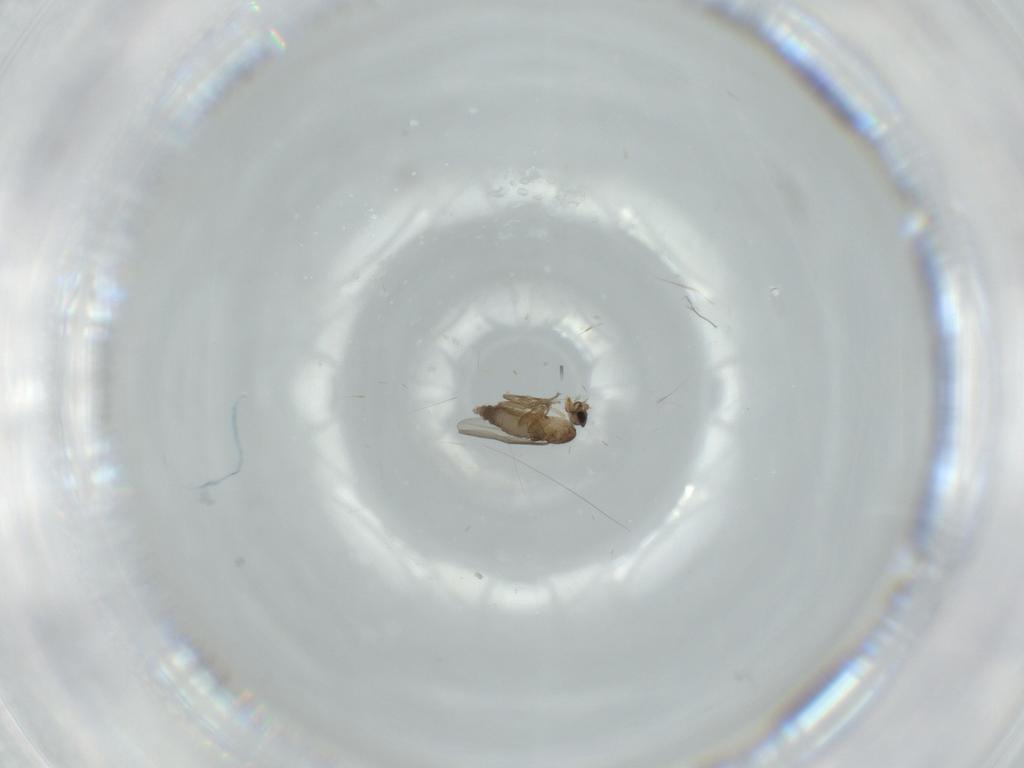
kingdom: Animalia
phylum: Arthropoda
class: Insecta
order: Diptera
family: Phoridae
